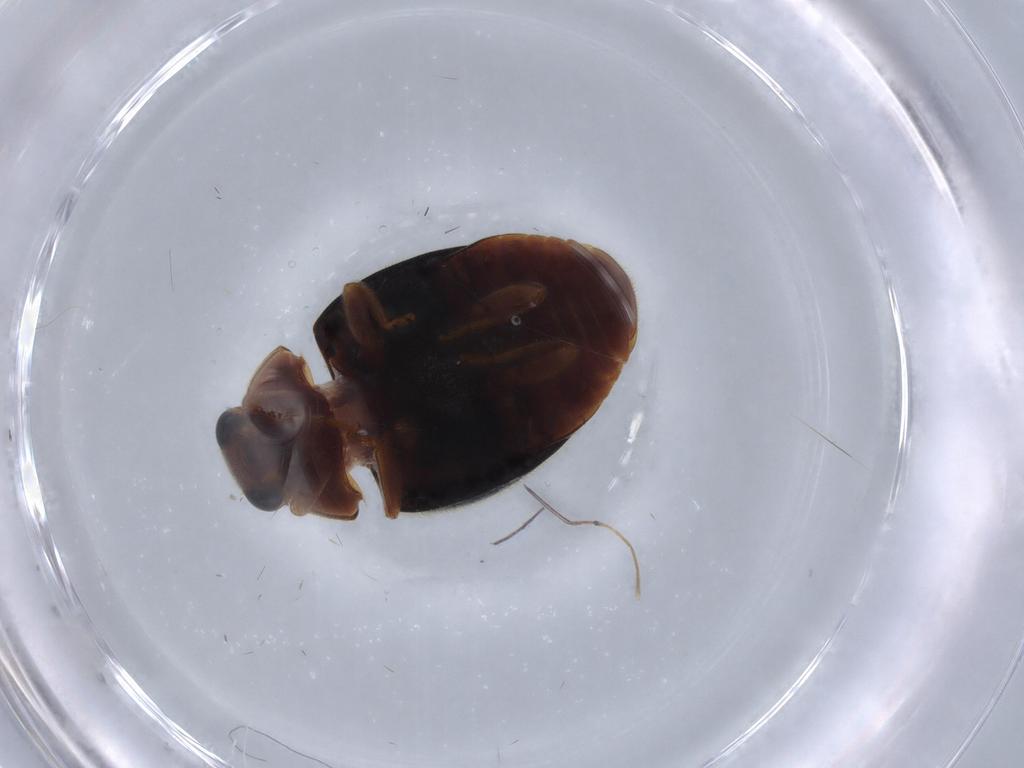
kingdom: Animalia
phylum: Arthropoda
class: Insecta
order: Coleoptera
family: Coccinellidae
